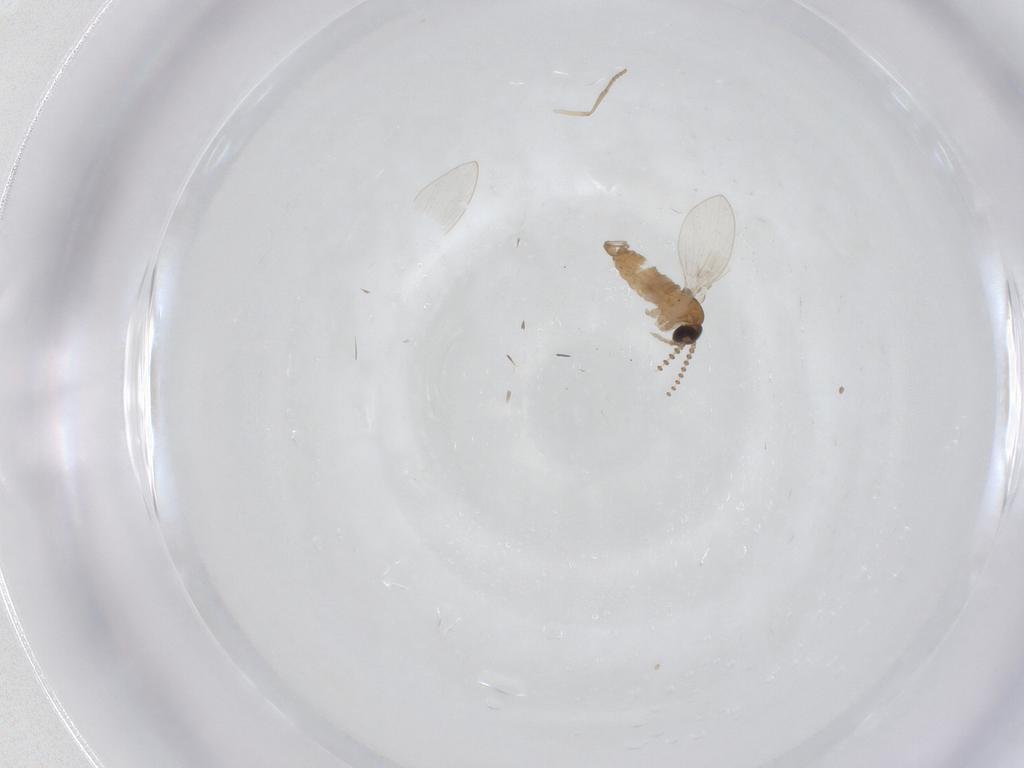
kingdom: Animalia
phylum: Arthropoda
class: Insecta
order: Diptera
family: Psychodidae
